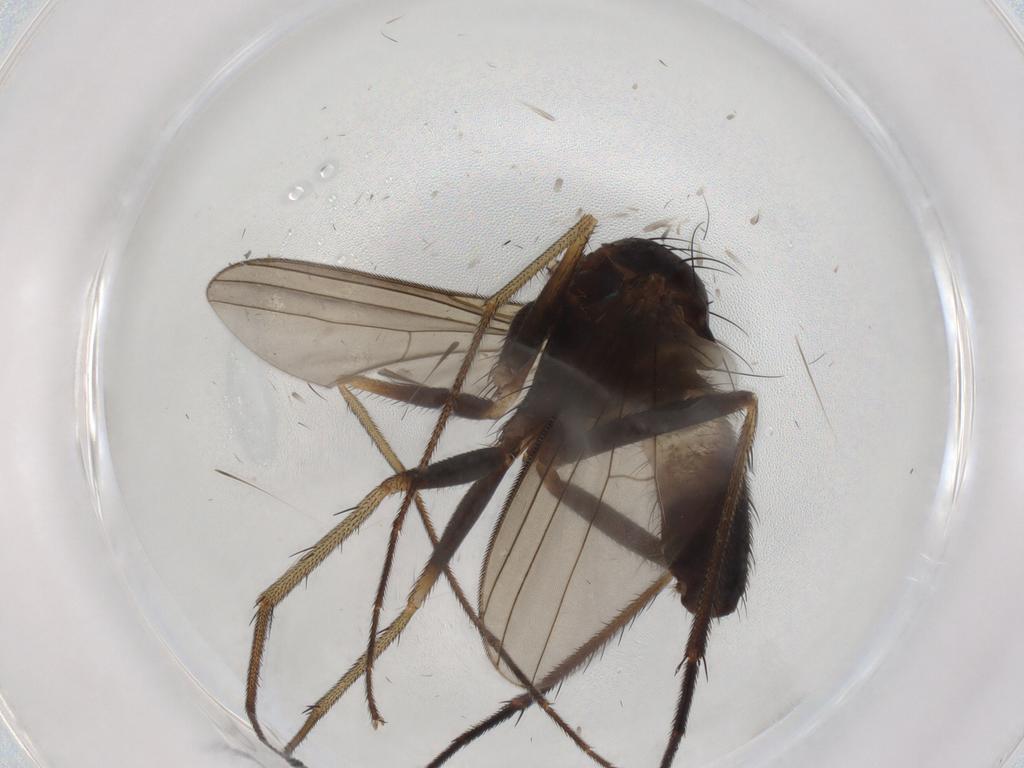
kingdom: Animalia
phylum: Arthropoda
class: Insecta
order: Diptera
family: Dolichopodidae
